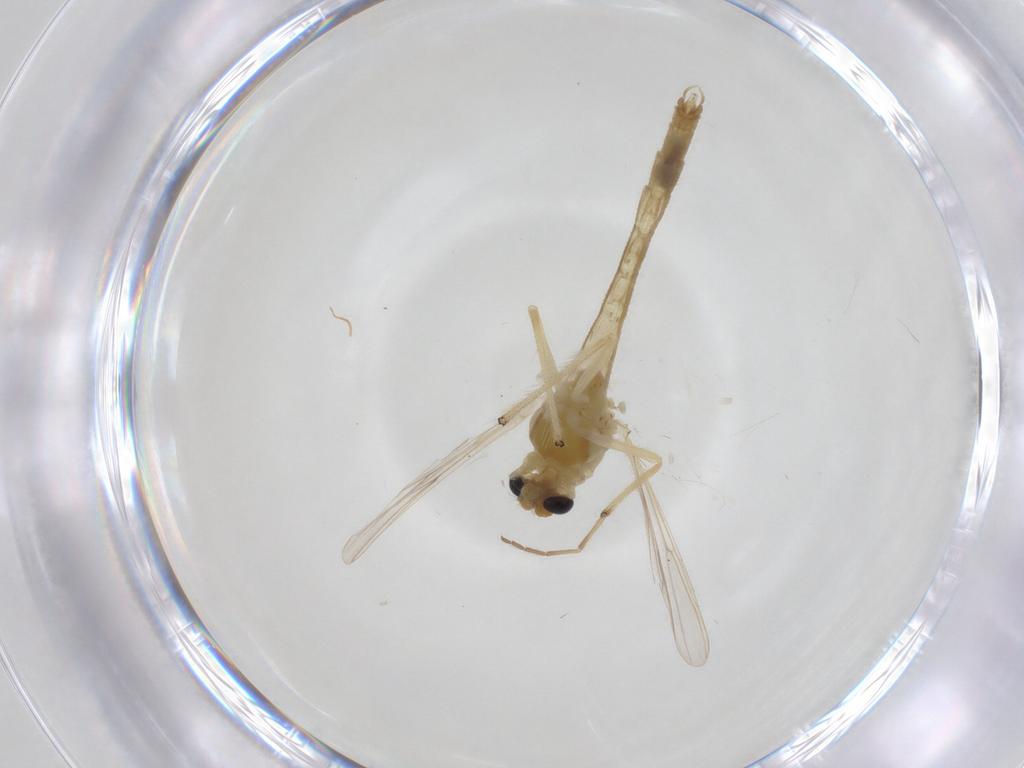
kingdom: Animalia
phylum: Arthropoda
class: Insecta
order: Diptera
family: Chironomidae
